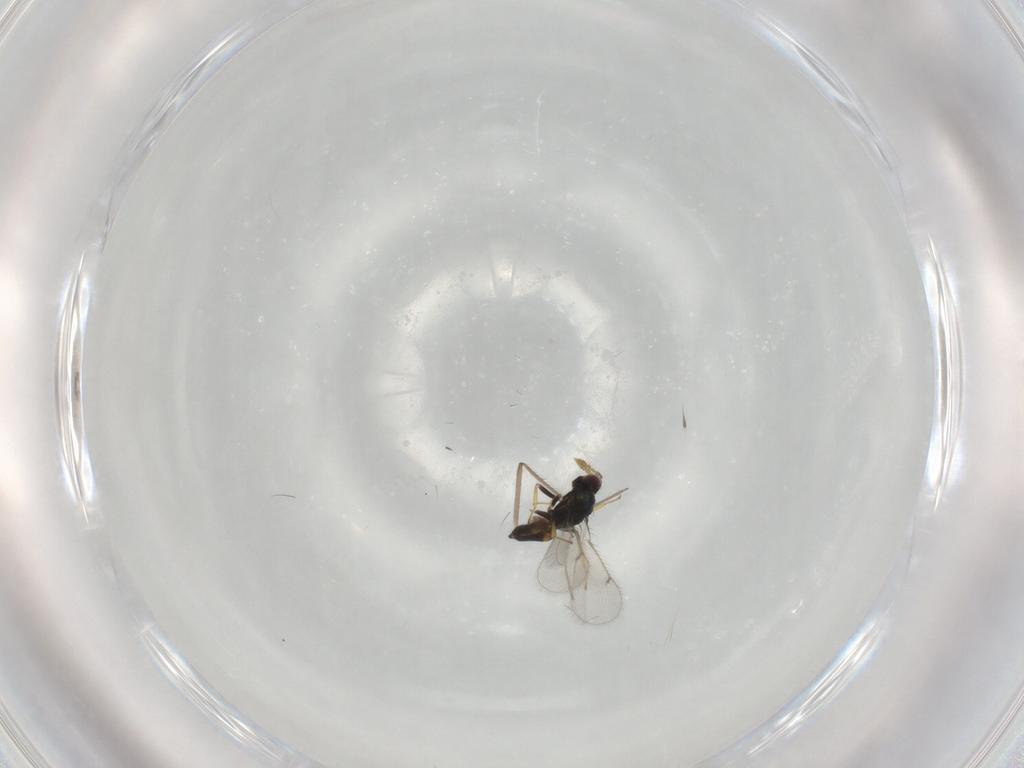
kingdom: Animalia
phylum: Arthropoda
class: Insecta
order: Hymenoptera
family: Eulophidae
